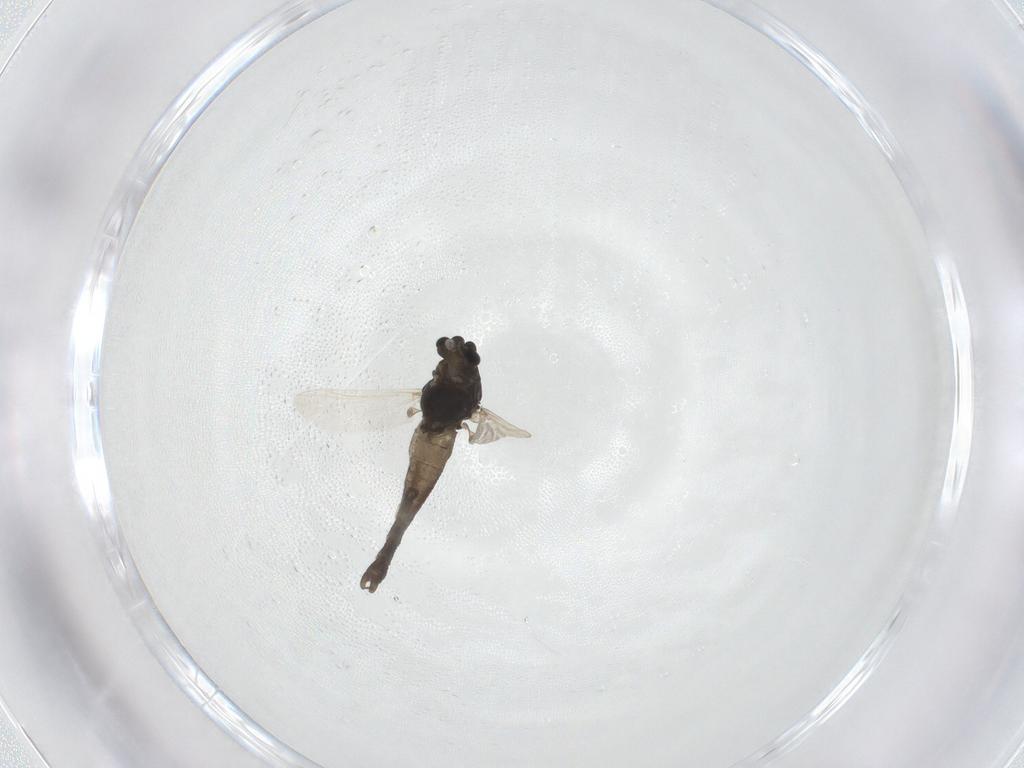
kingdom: Animalia
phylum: Arthropoda
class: Insecta
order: Diptera
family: Chironomidae
